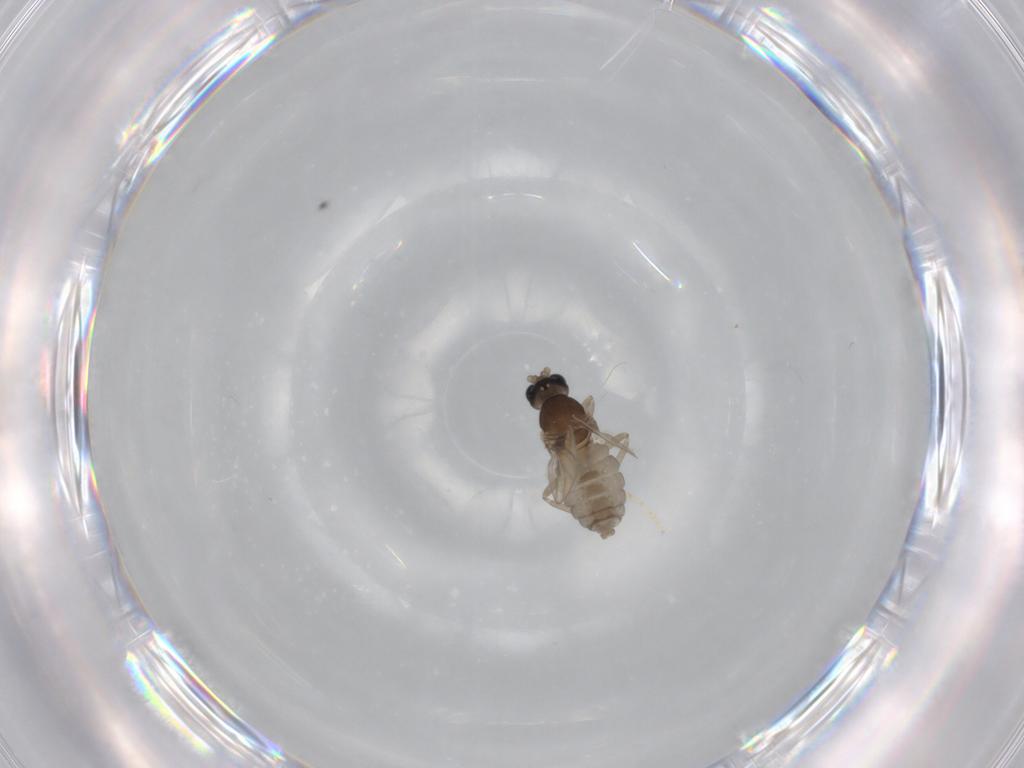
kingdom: Animalia
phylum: Arthropoda
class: Insecta
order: Diptera
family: Cecidomyiidae
